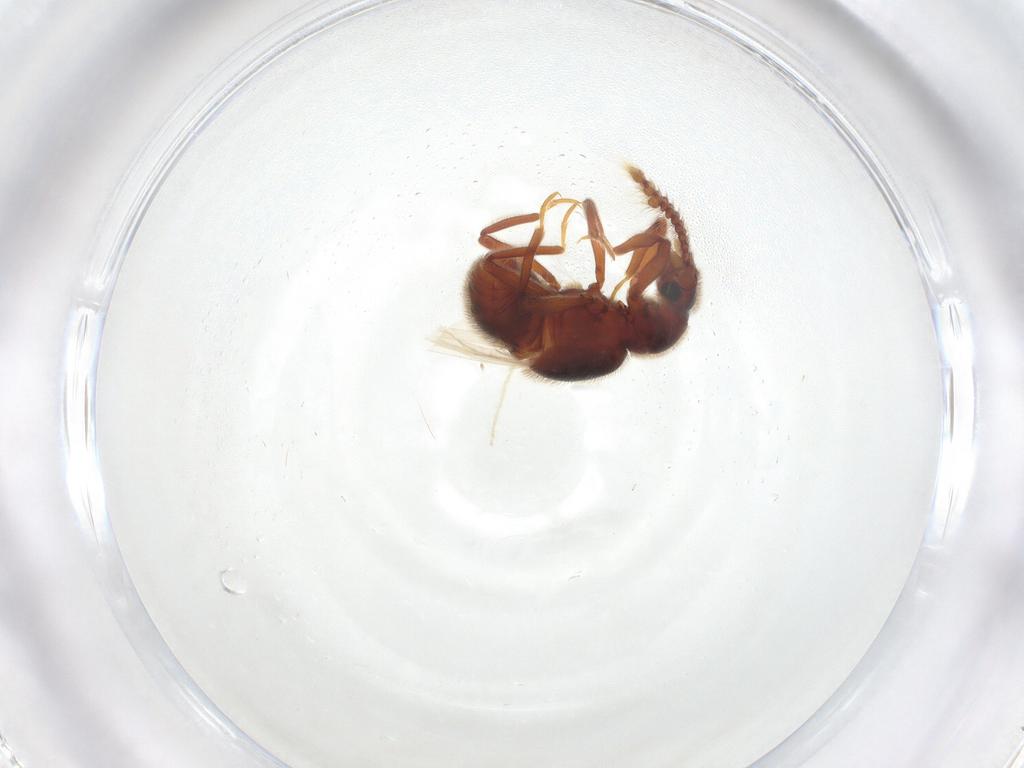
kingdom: Animalia
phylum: Arthropoda
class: Insecta
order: Coleoptera
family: Staphylinidae
